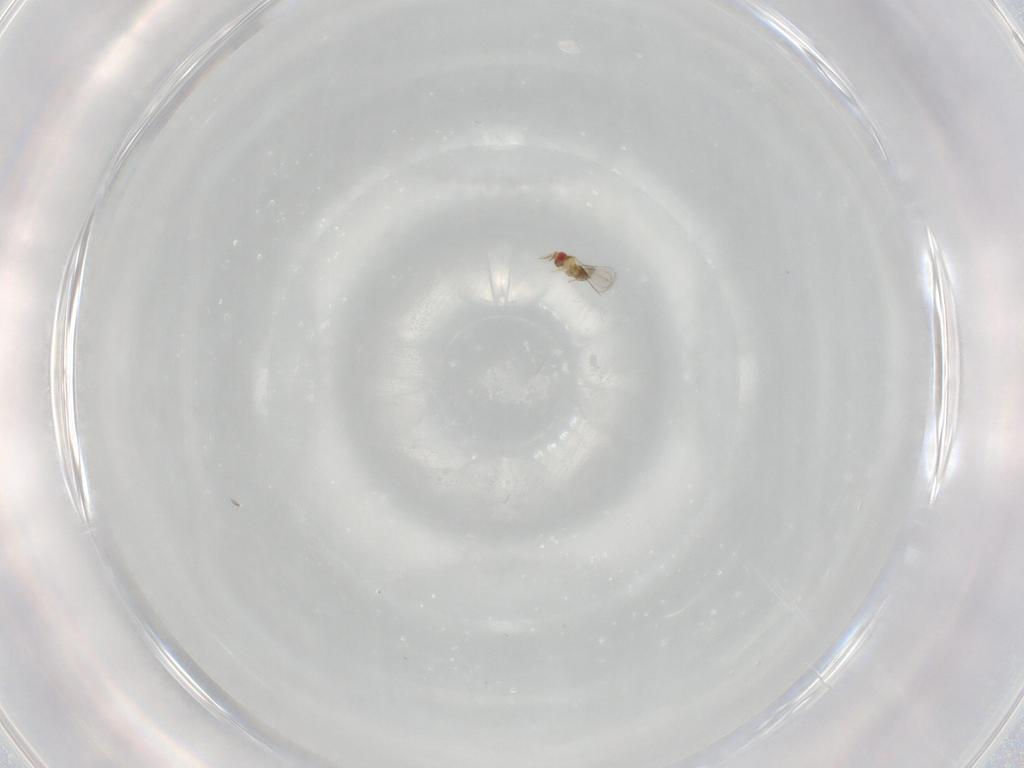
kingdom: Animalia
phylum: Arthropoda
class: Insecta
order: Hymenoptera
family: Trichogrammatidae
